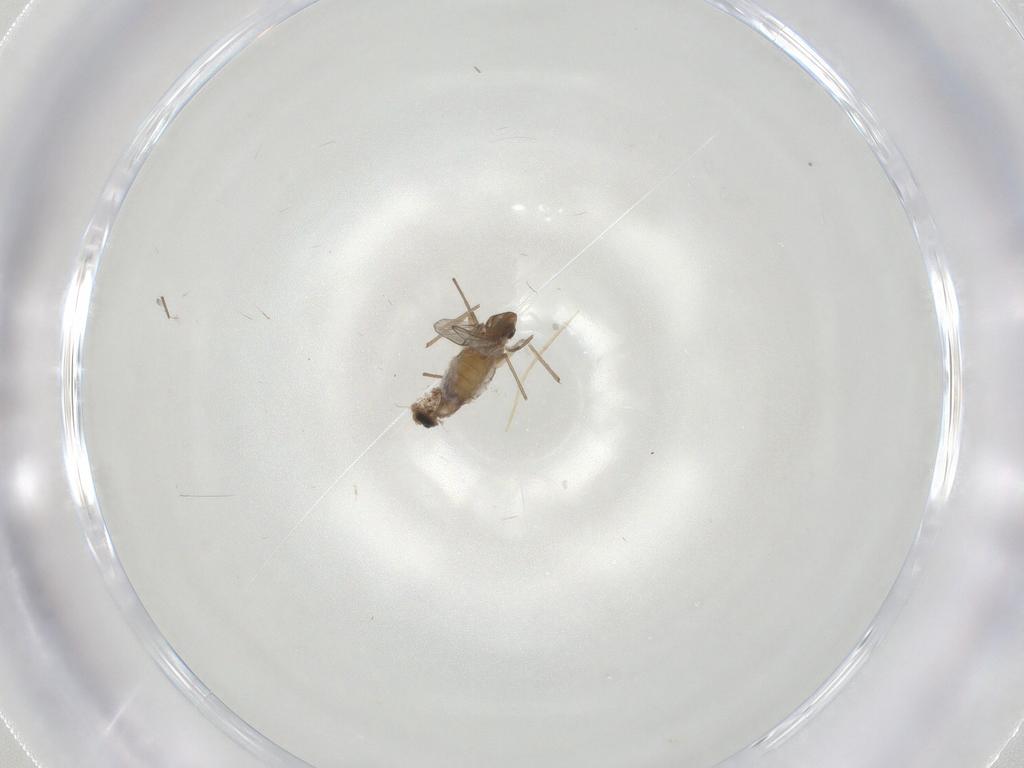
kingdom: Animalia
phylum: Arthropoda
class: Insecta
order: Diptera
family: Chironomidae
